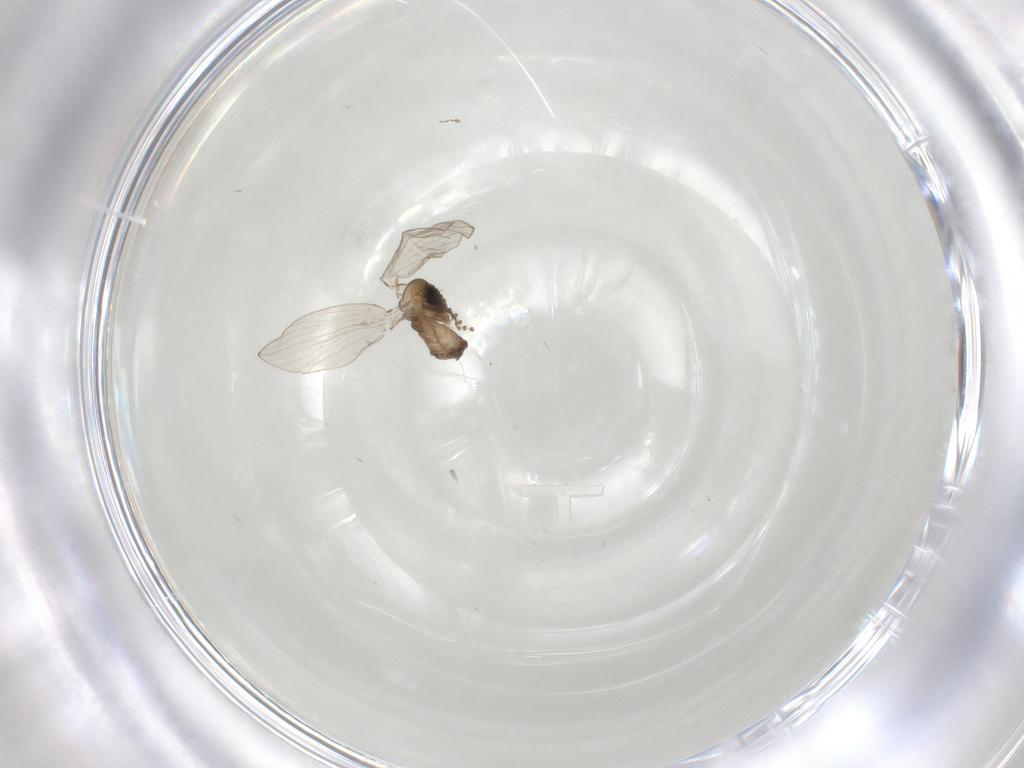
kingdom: Animalia
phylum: Arthropoda
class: Insecta
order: Diptera
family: Psychodidae
